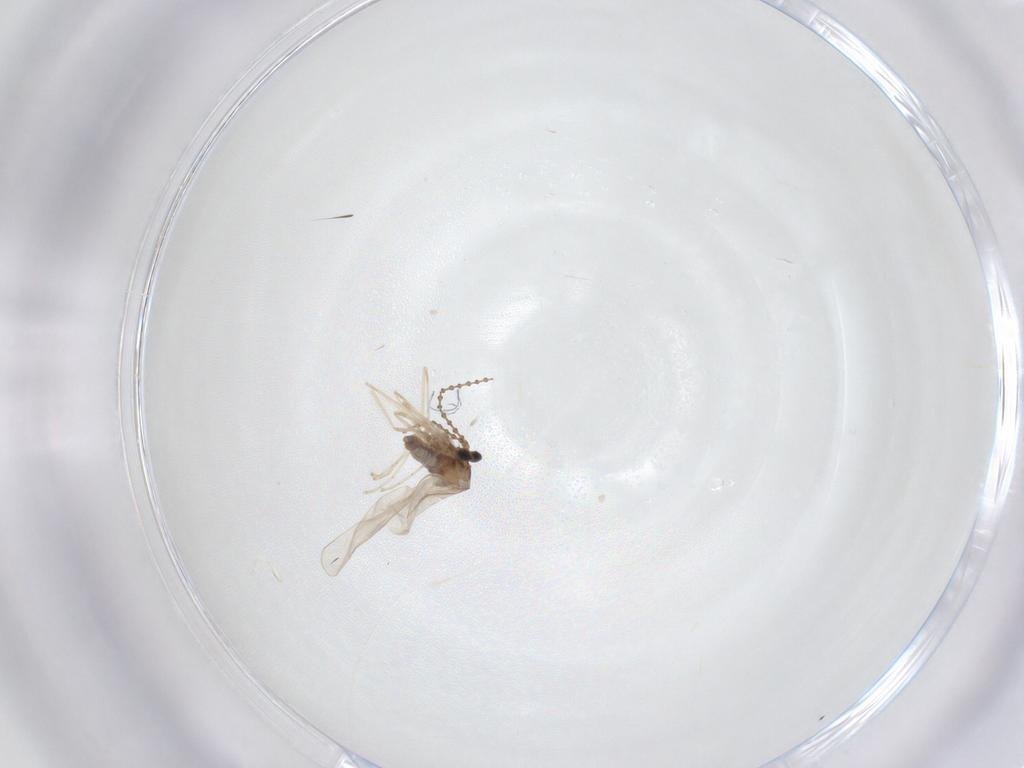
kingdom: Animalia
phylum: Arthropoda
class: Insecta
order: Diptera
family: Cecidomyiidae
